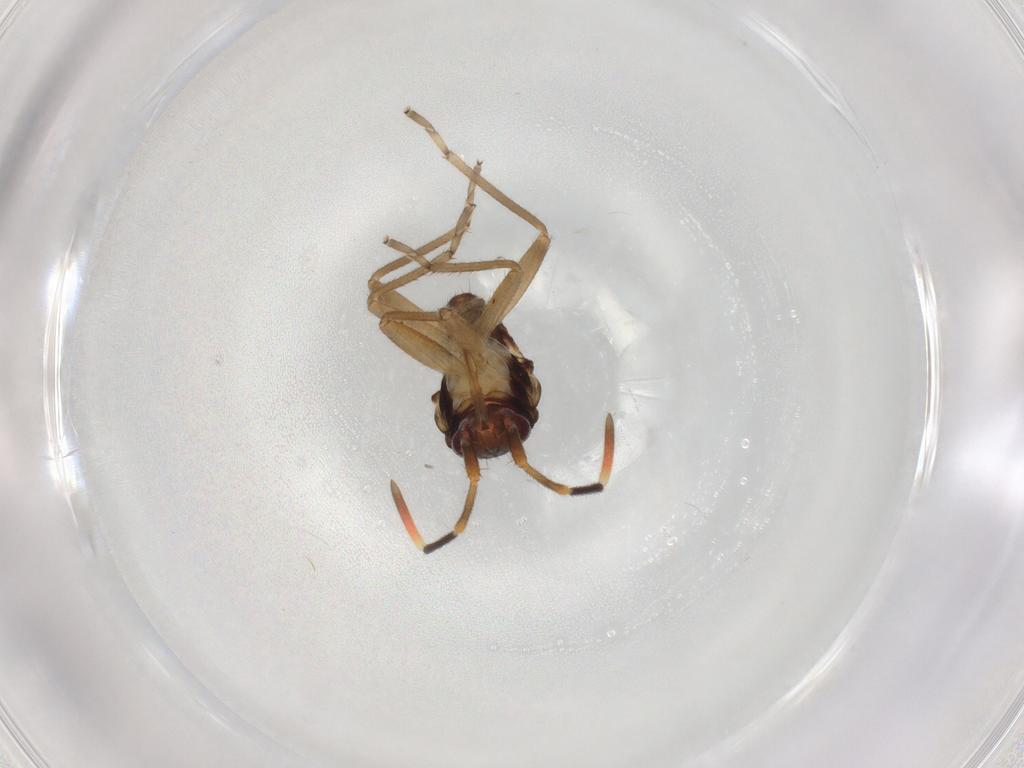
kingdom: Animalia
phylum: Arthropoda
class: Insecta
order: Hemiptera
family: Rhyparochromidae
